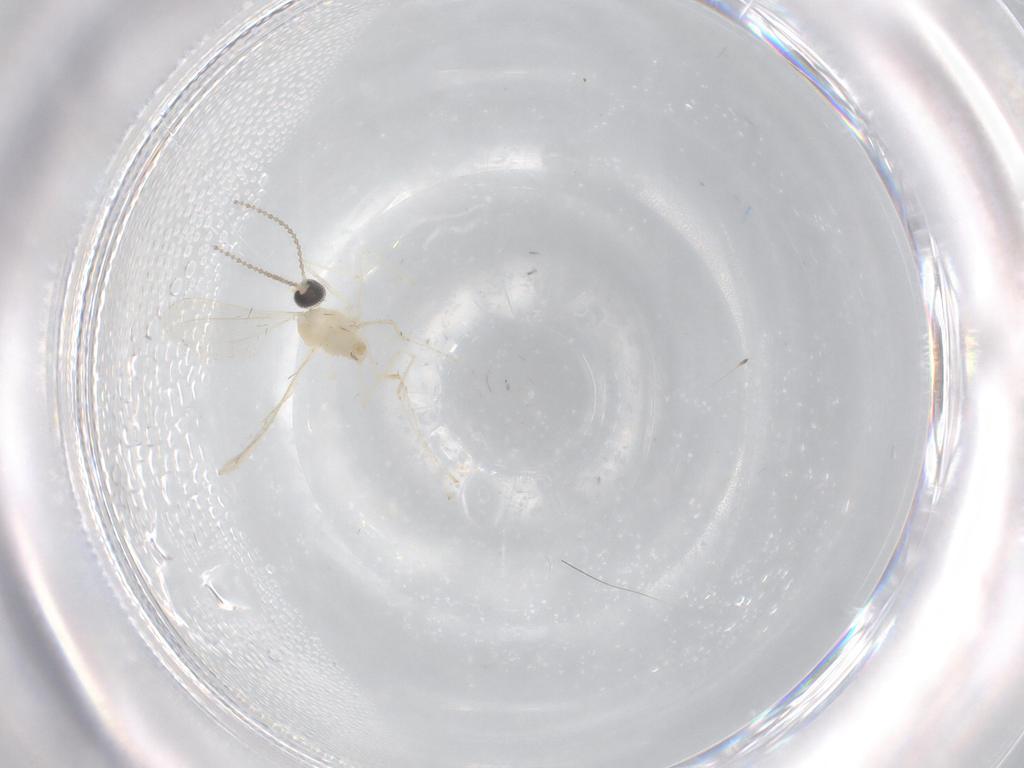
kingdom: Animalia
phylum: Arthropoda
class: Insecta
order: Diptera
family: Cecidomyiidae
